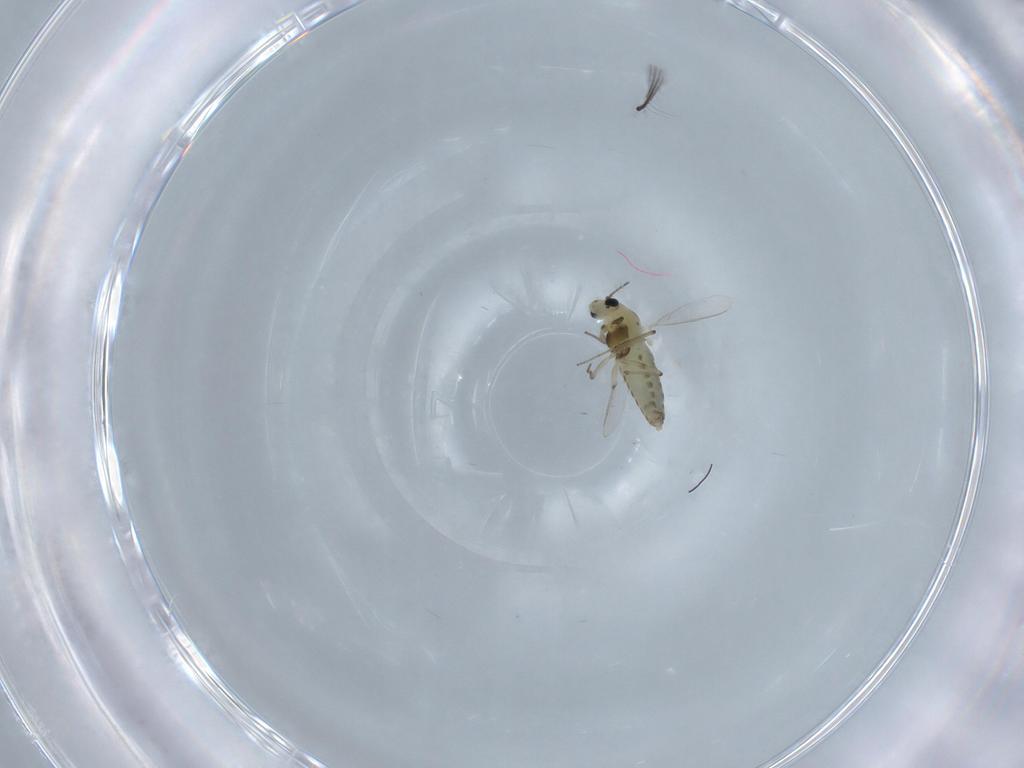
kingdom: Animalia
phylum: Arthropoda
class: Insecta
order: Diptera
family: Chironomidae
